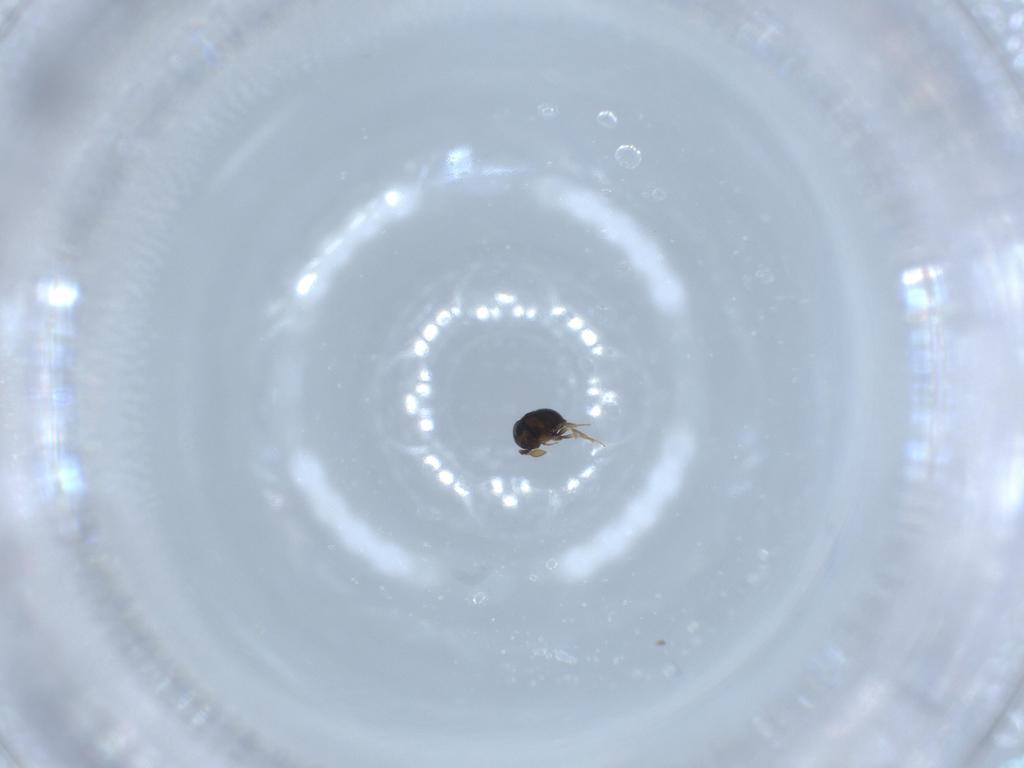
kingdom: Animalia
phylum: Arthropoda
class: Insecta
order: Hymenoptera
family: Scelionidae
